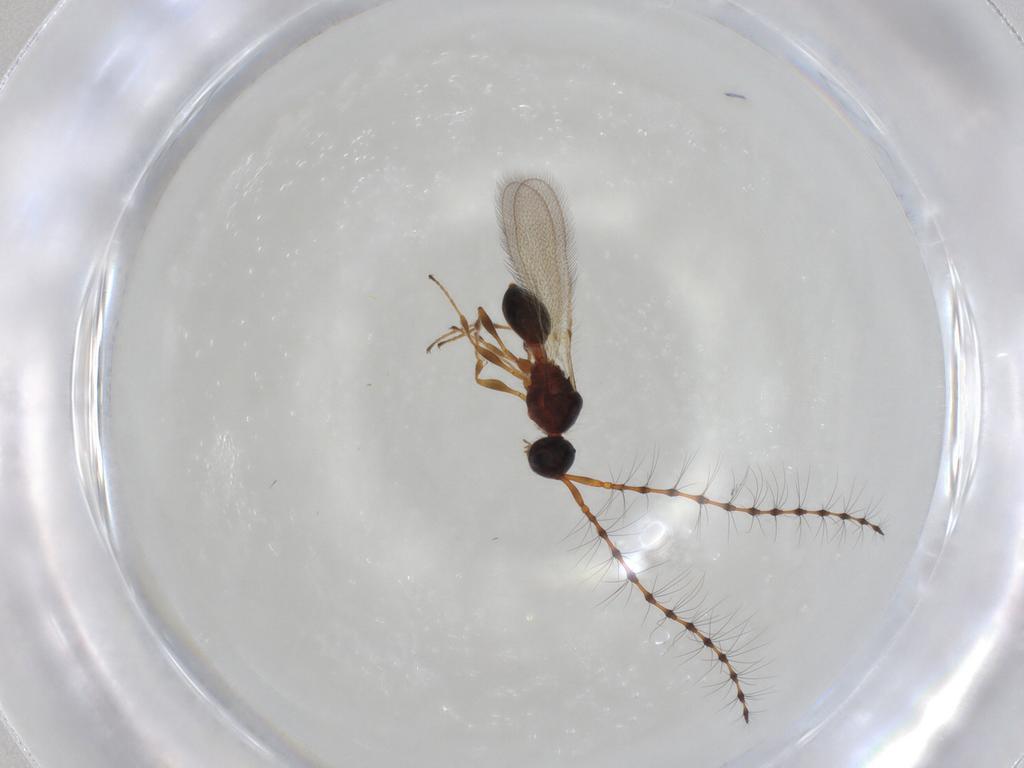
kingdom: Animalia
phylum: Arthropoda
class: Insecta
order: Hymenoptera
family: Diapriidae
